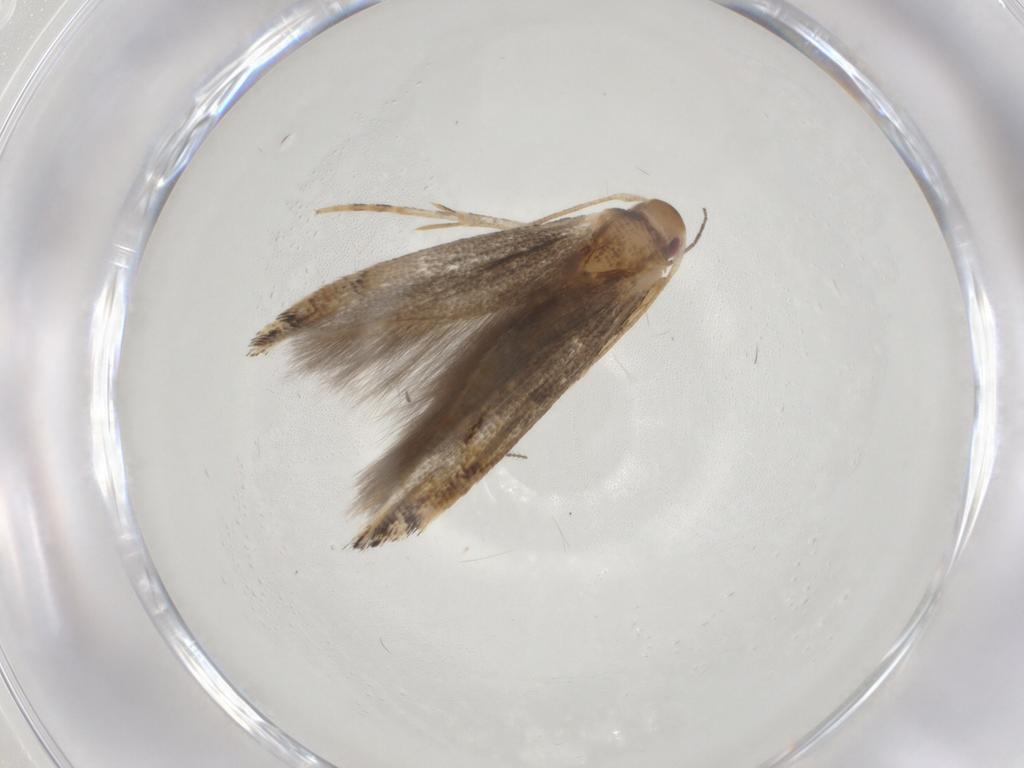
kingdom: Animalia
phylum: Arthropoda
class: Insecta
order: Lepidoptera
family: Momphidae
